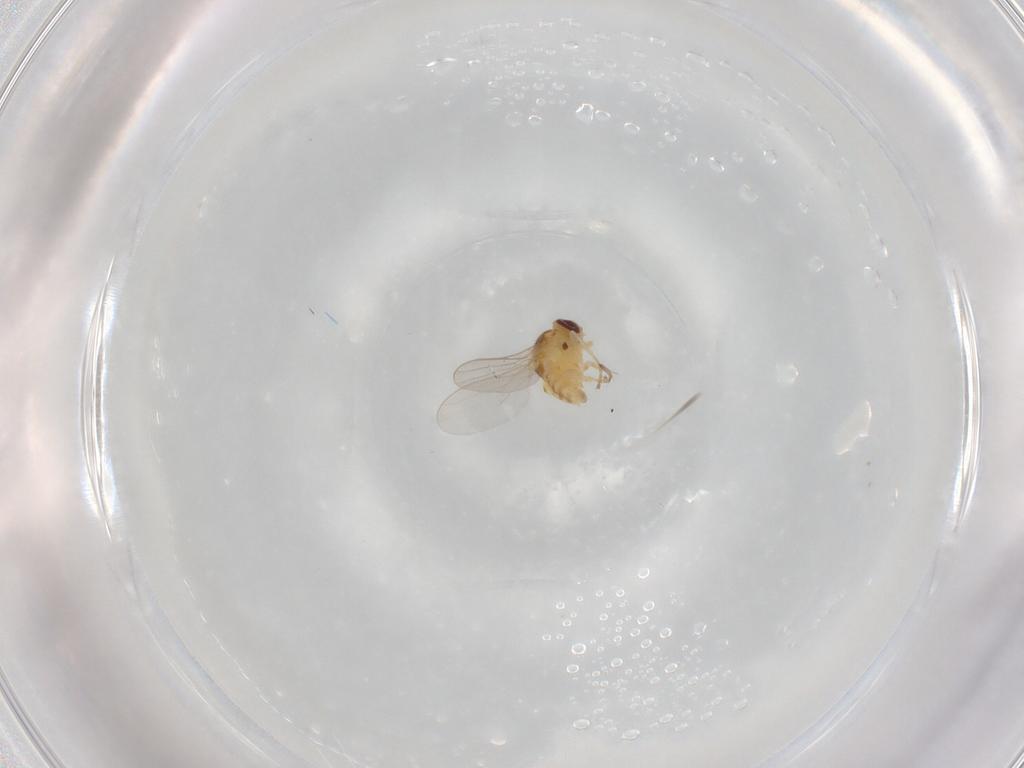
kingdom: Animalia
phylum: Arthropoda
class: Insecta
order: Diptera
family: Chloropidae
